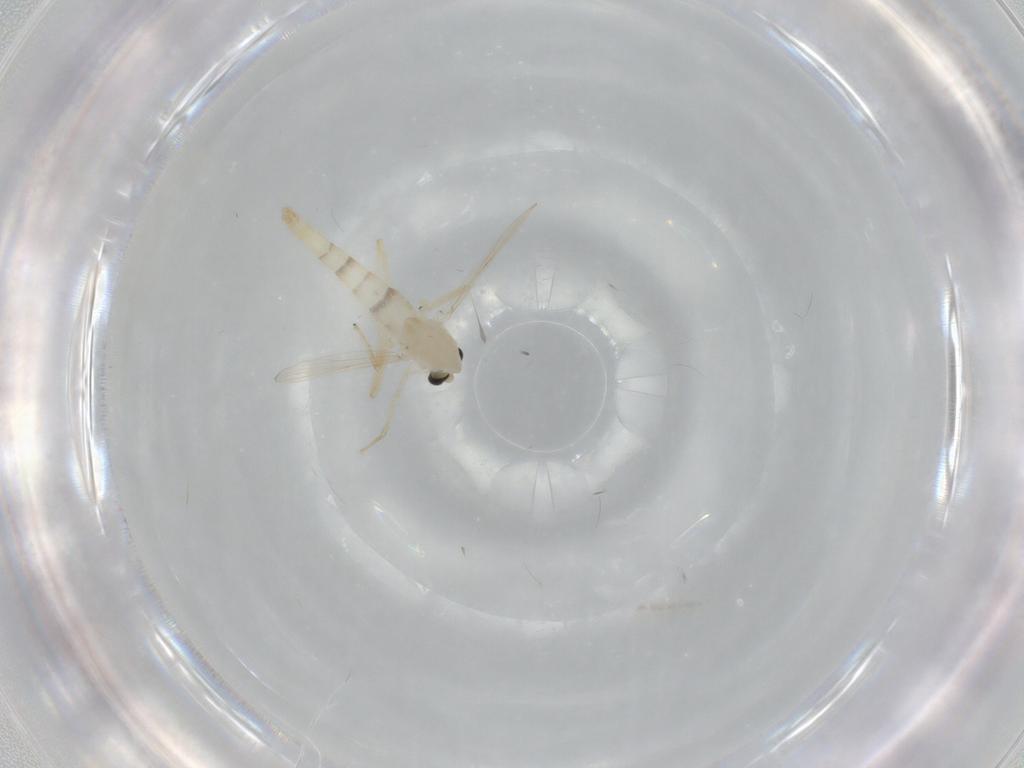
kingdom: Animalia
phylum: Arthropoda
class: Insecta
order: Diptera
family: Chironomidae
